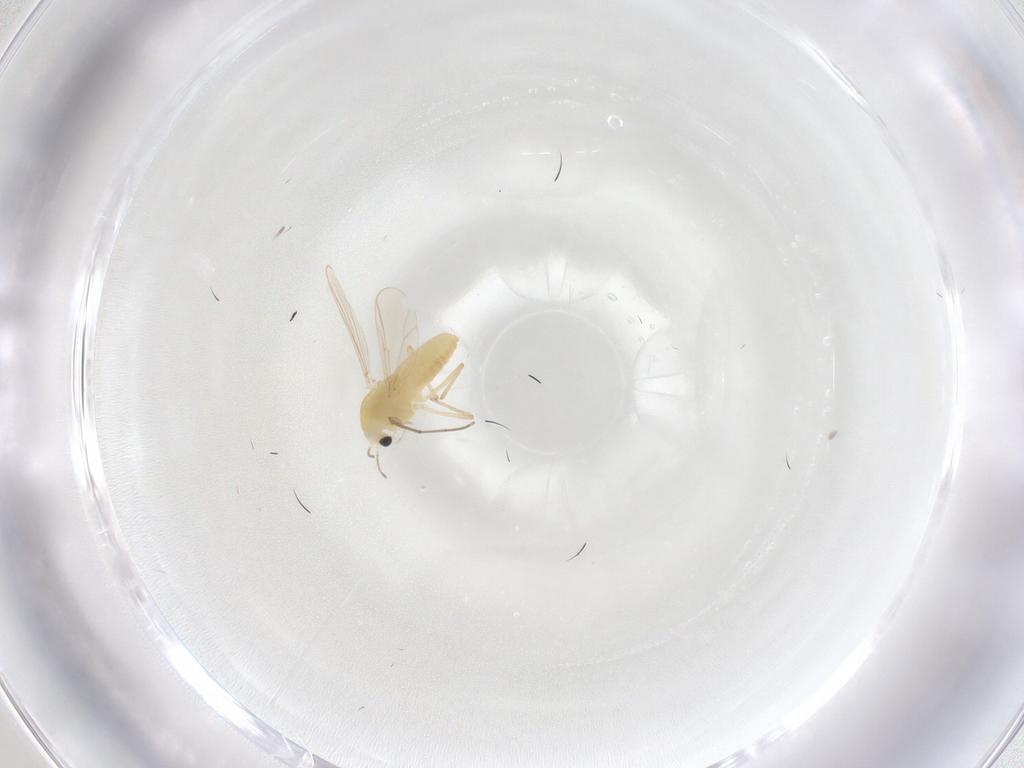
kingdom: Animalia
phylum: Arthropoda
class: Insecta
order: Diptera
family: Chironomidae
